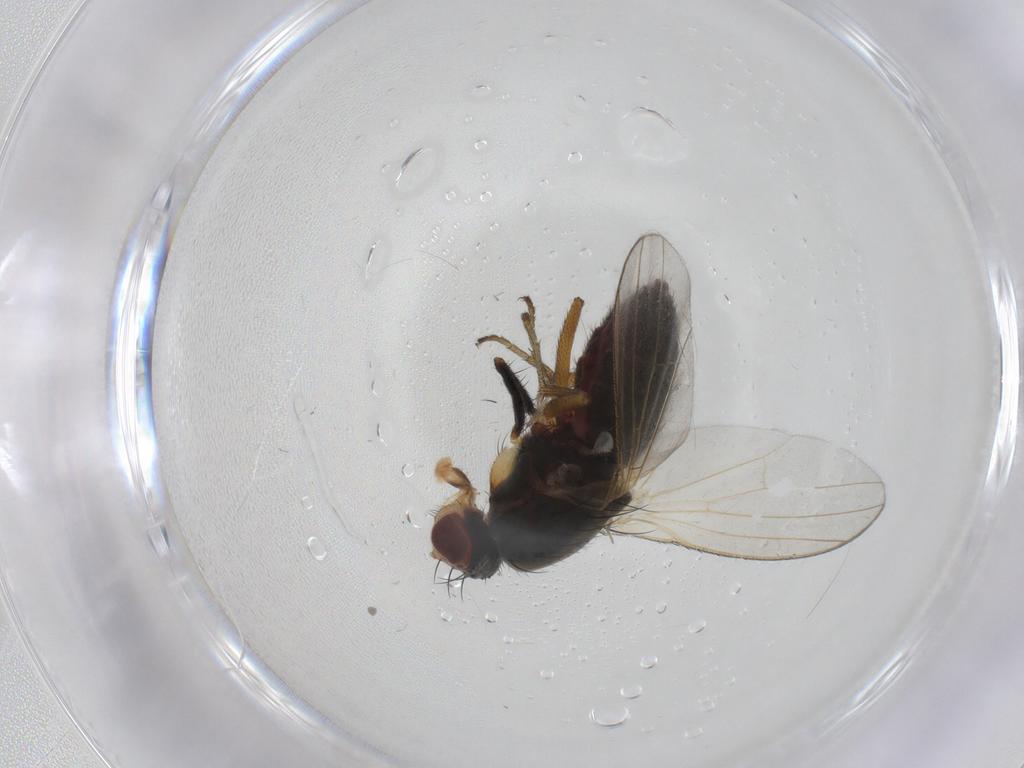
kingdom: Animalia
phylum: Arthropoda
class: Insecta
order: Diptera
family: Heleomyzidae
